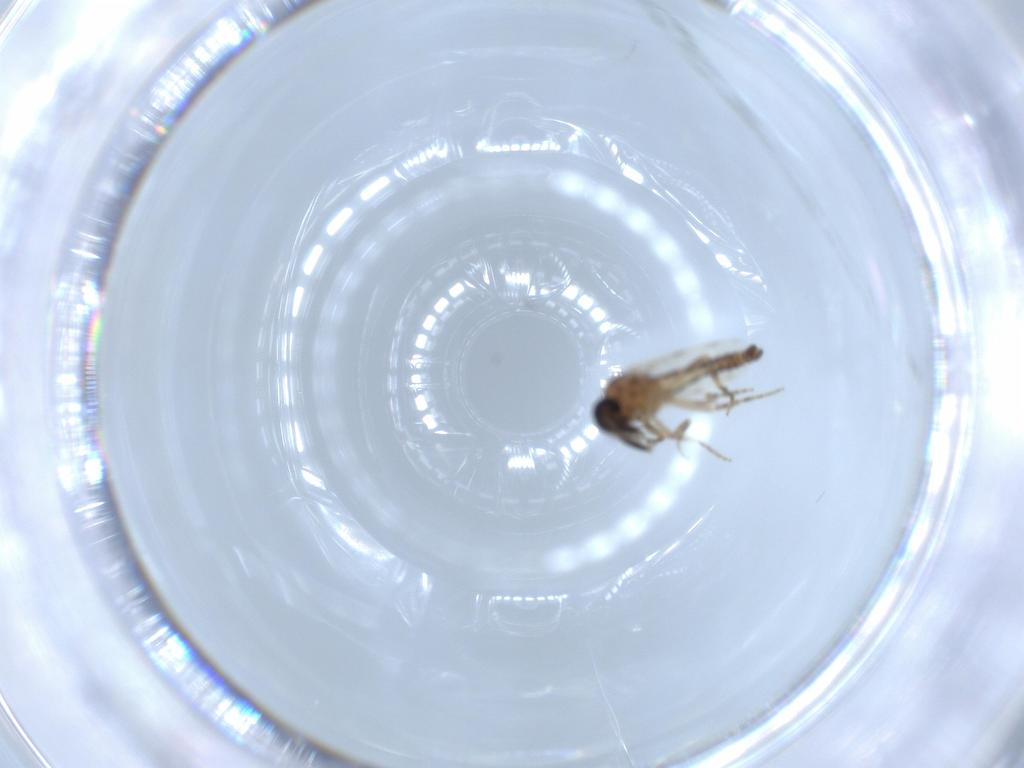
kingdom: Animalia
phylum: Arthropoda
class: Insecta
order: Diptera
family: Ceratopogonidae
